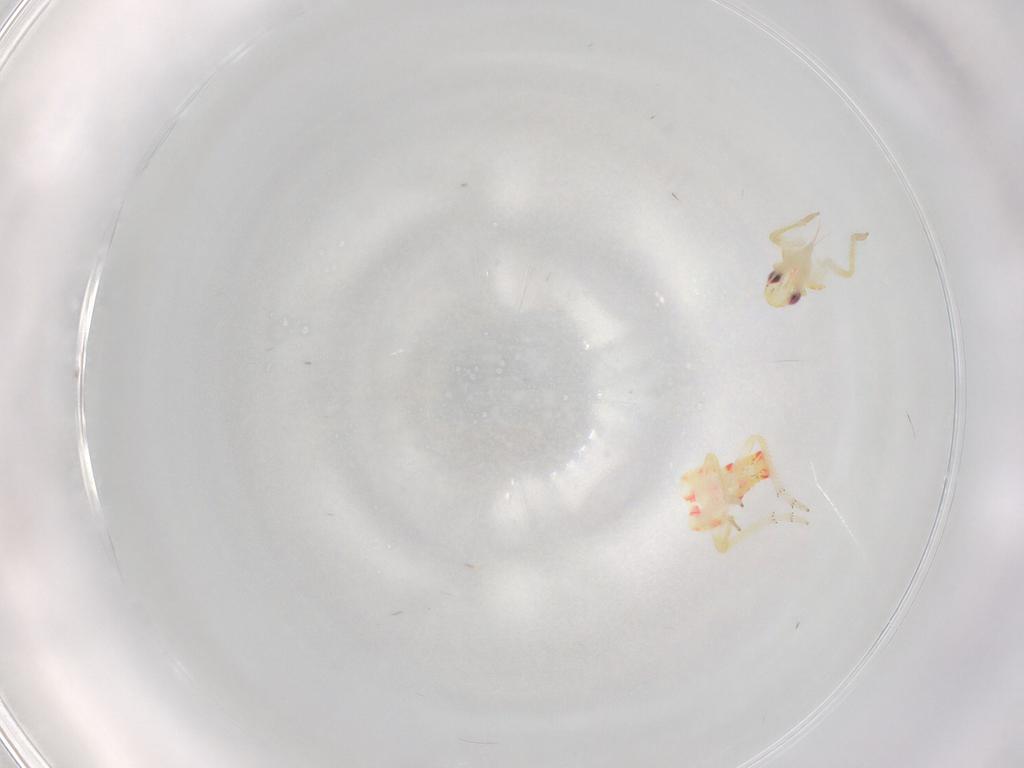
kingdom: Animalia
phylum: Arthropoda
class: Insecta
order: Hemiptera
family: Tropiduchidae
